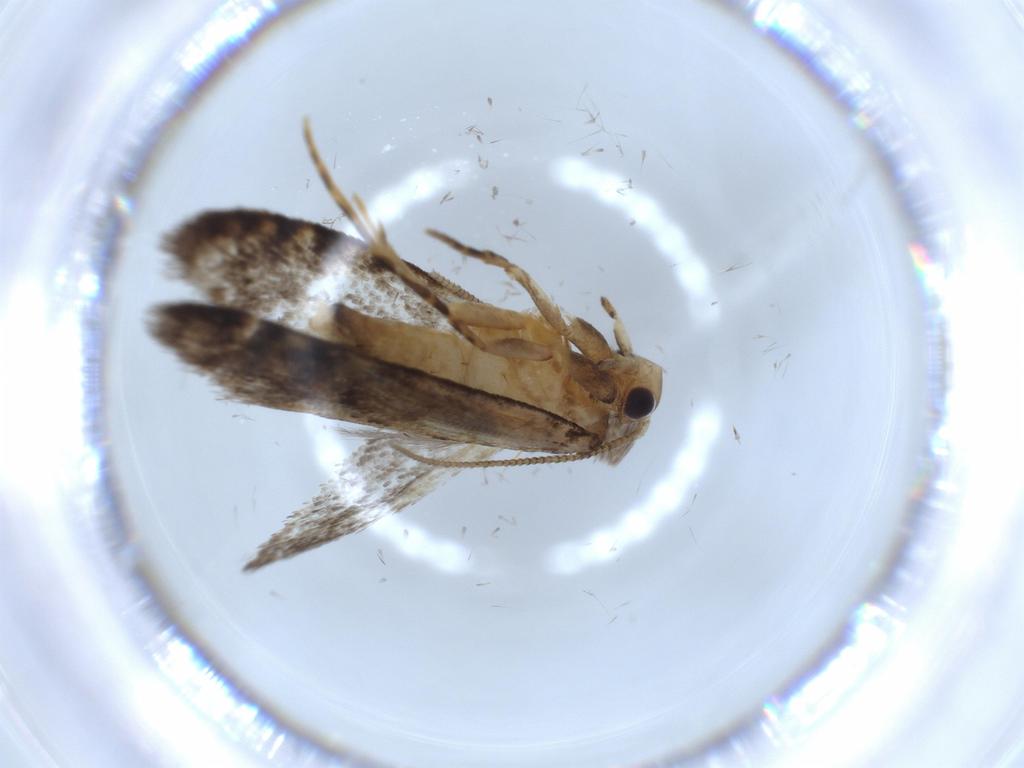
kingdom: Animalia
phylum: Arthropoda
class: Insecta
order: Lepidoptera
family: Tineidae
